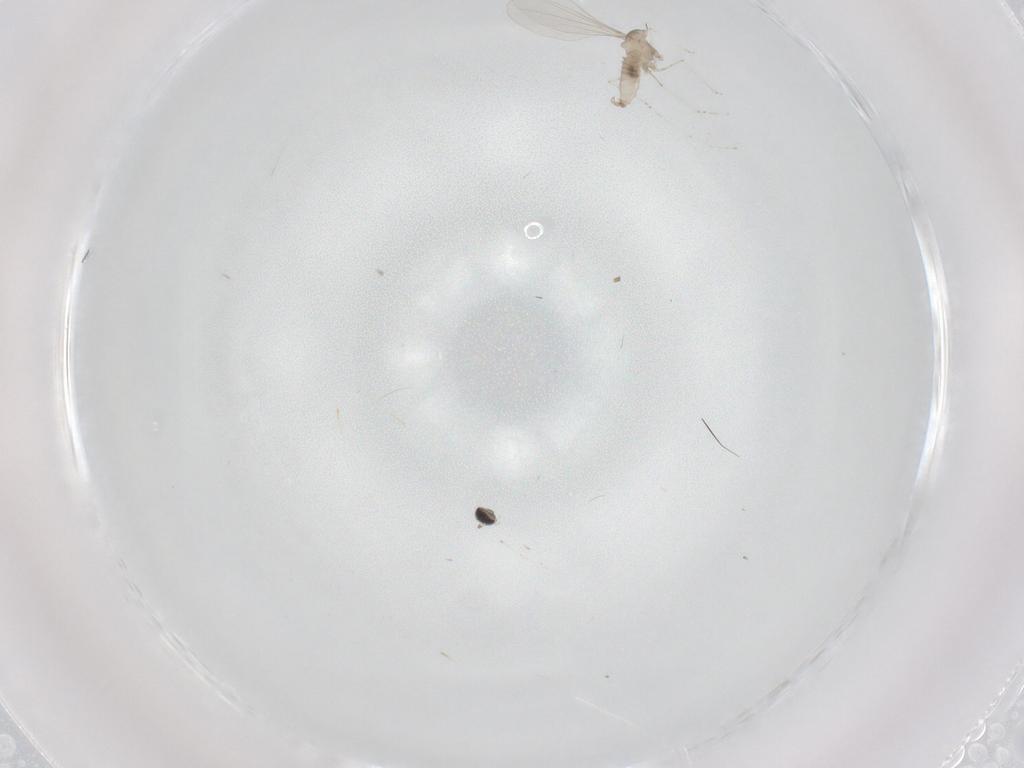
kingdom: Animalia
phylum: Arthropoda
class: Insecta
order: Diptera
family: Cecidomyiidae
